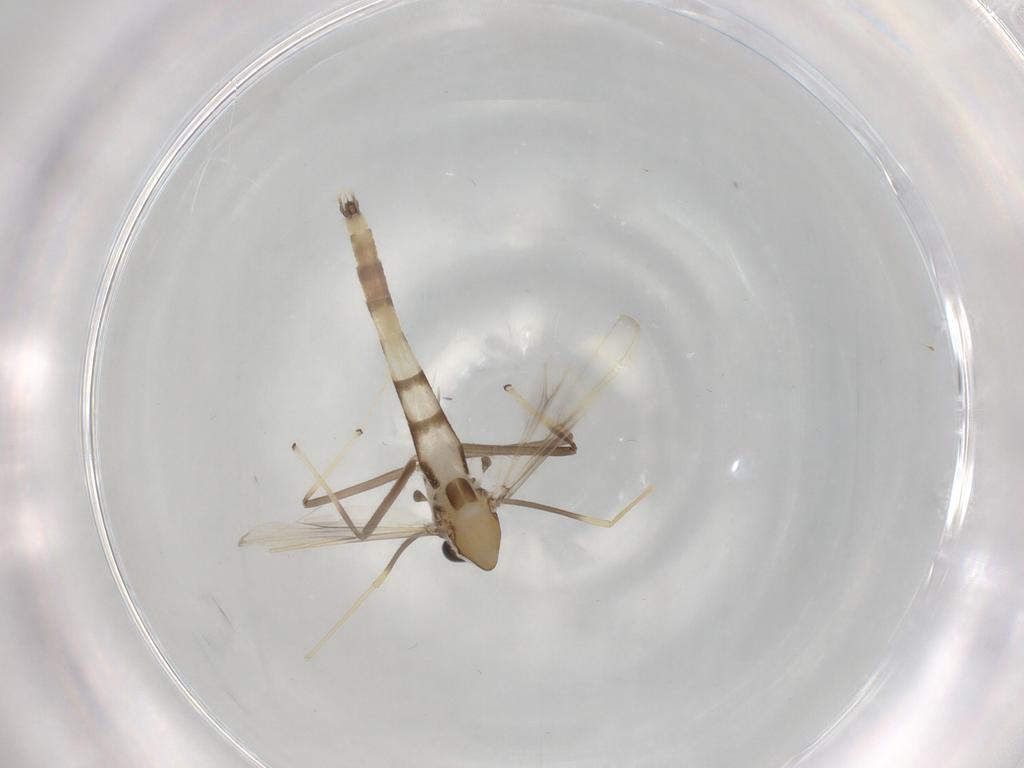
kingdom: Animalia
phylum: Arthropoda
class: Insecta
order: Diptera
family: Chironomidae
